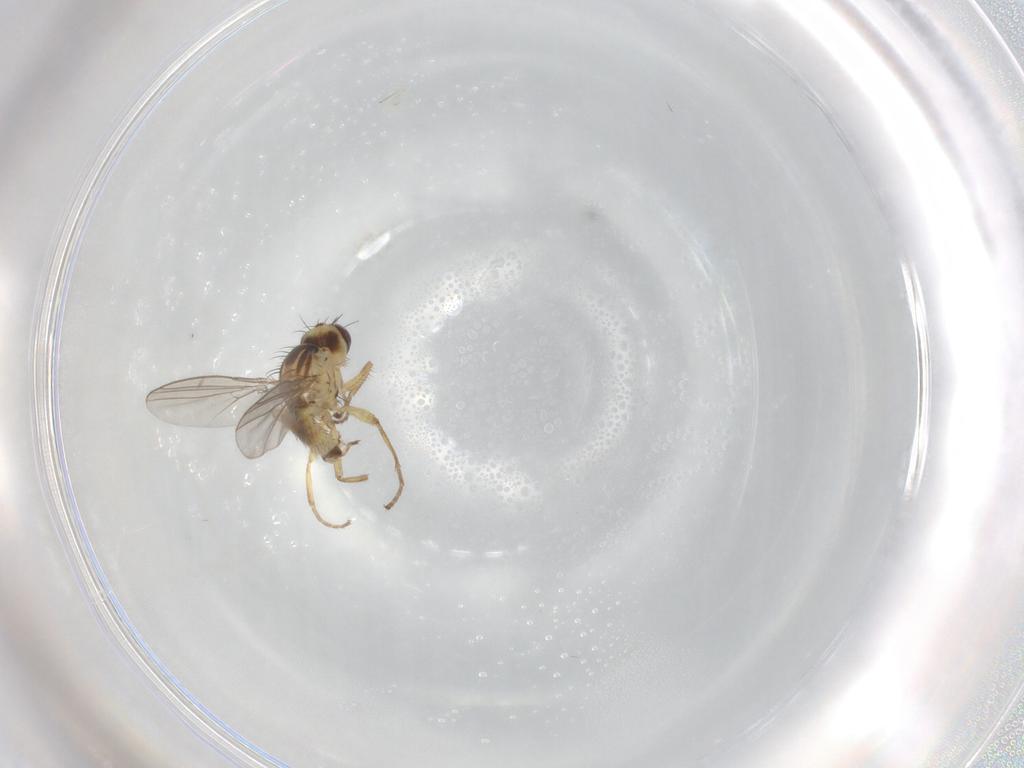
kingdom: Animalia
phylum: Arthropoda
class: Insecta
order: Diptera
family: Agromyzidae
